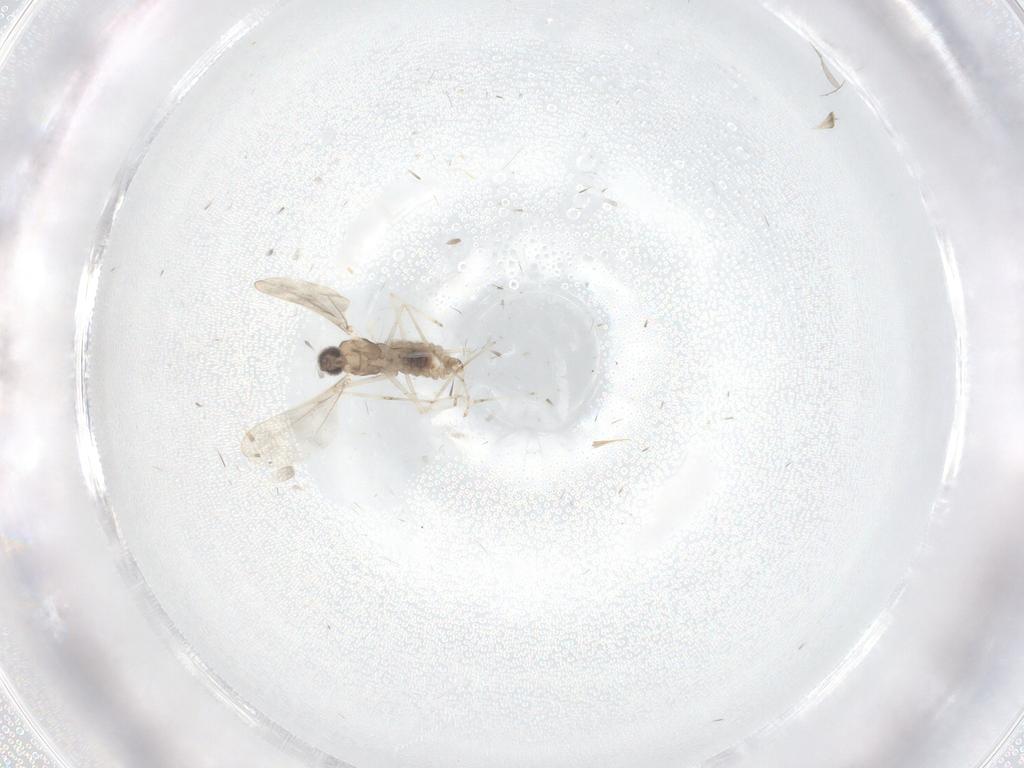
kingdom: Animalia
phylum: Arthropoda
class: Insecta
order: Diptera
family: Cecidomyiidae
